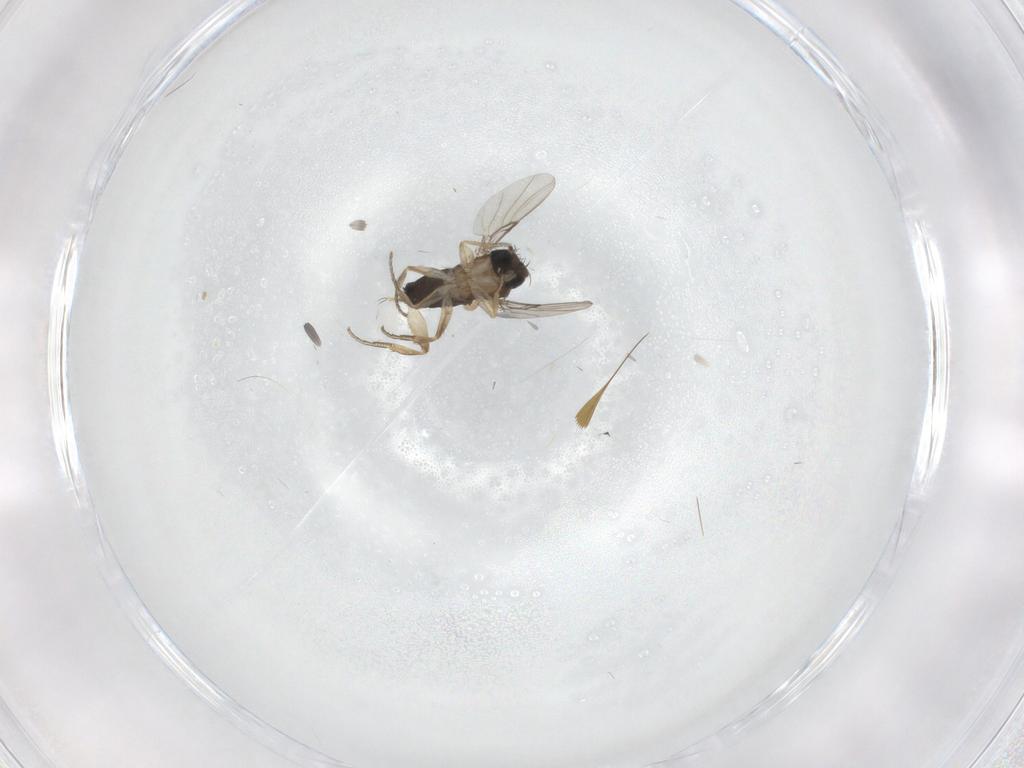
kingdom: Animalia
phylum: Arthropoda
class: Insecta
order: Diptera
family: Phoridae
